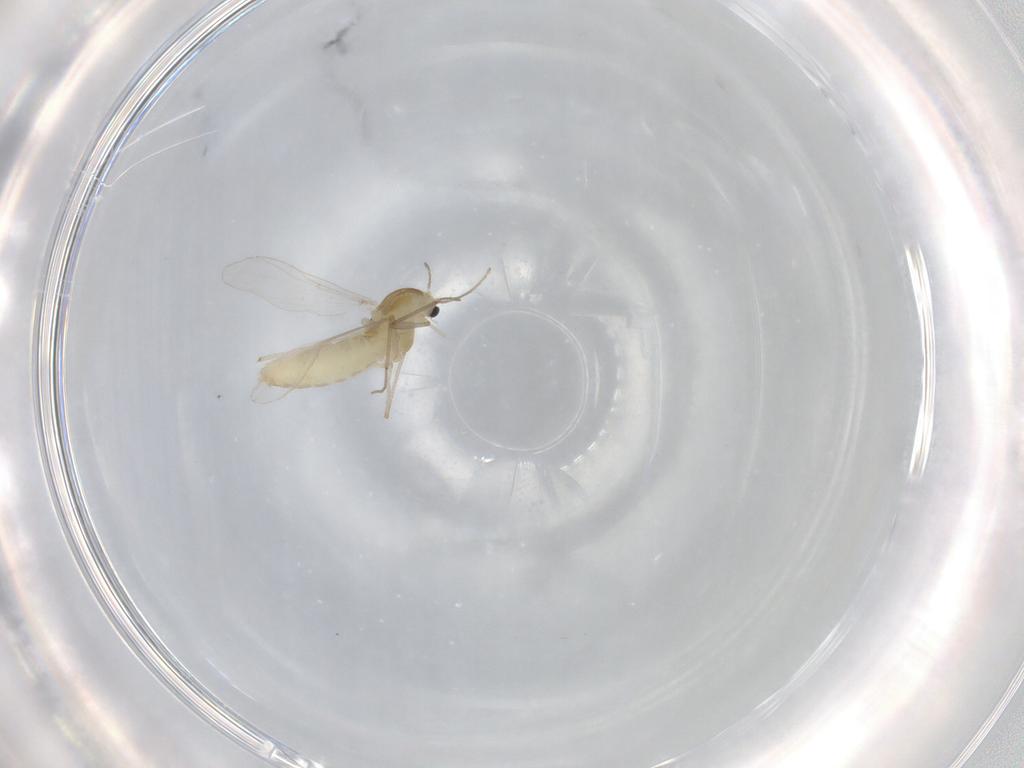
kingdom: Animalia
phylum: Arthropoda
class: Insecta
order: Diptera
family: Chironomidae
